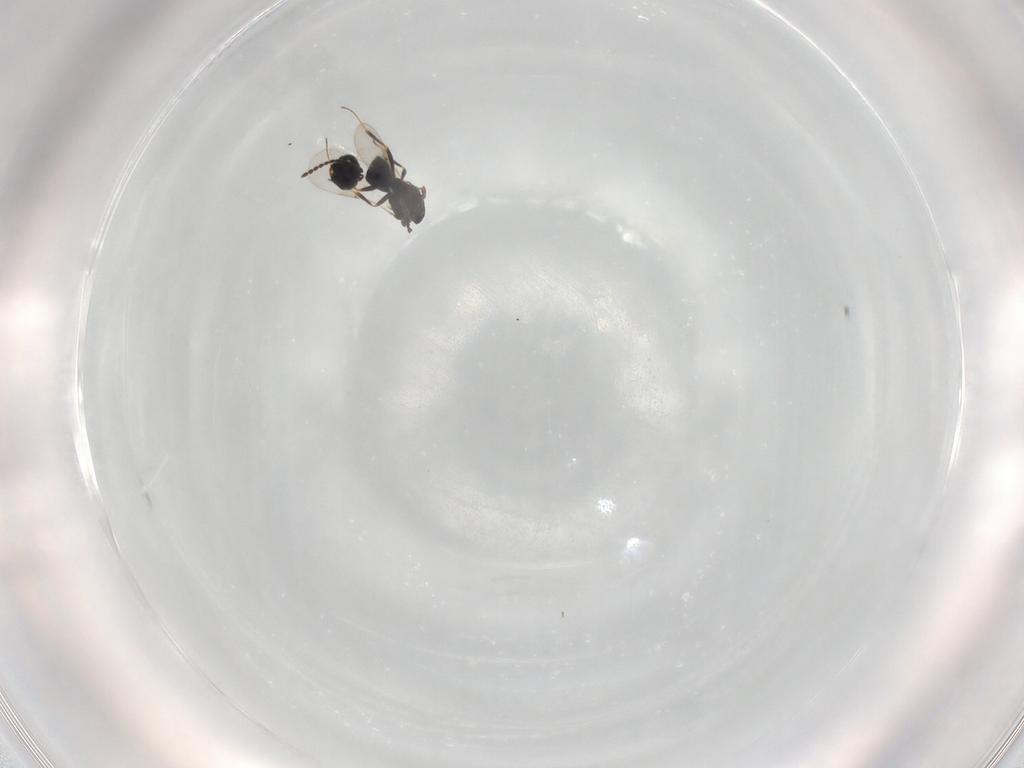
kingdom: Animalia
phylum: Arthropoda
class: Insecta
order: Hymenoptera
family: Scelionidae
